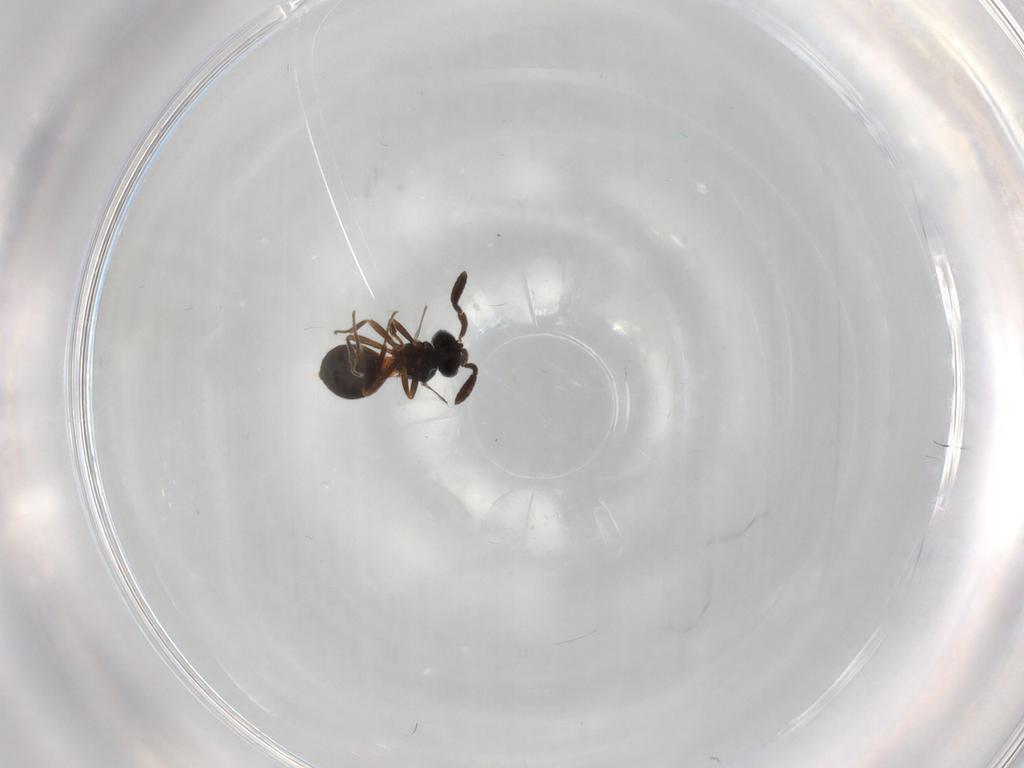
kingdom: Animalia
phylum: Arthropoda
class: Insecta
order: Hymenoptera
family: Scelionidae
